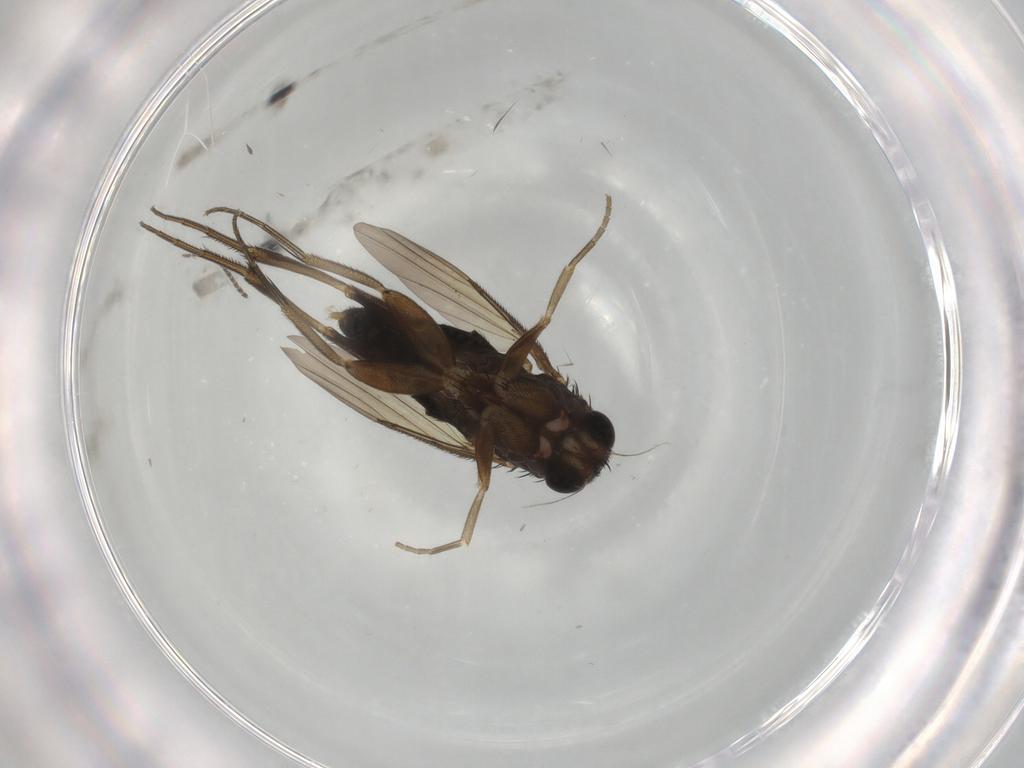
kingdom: Animalia
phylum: Arthropoda
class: Insecta
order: Diptera
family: Phoridae
